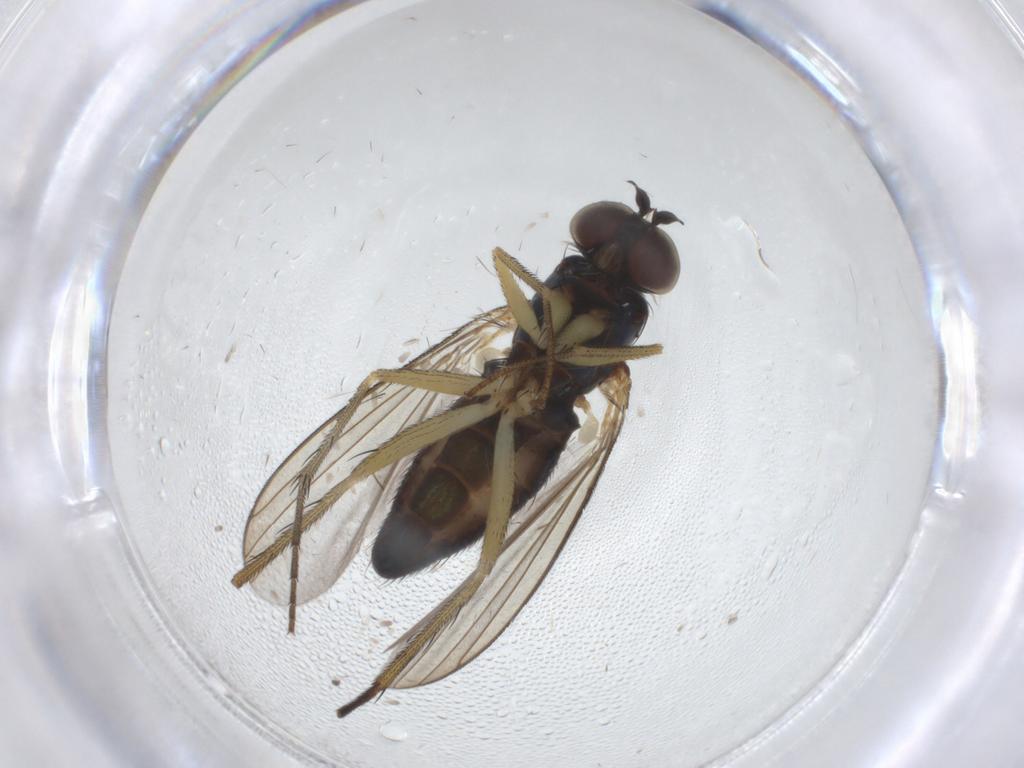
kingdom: Animalia
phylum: Arthropoda
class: Insecta
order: Diptera
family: Dolichopodidae
